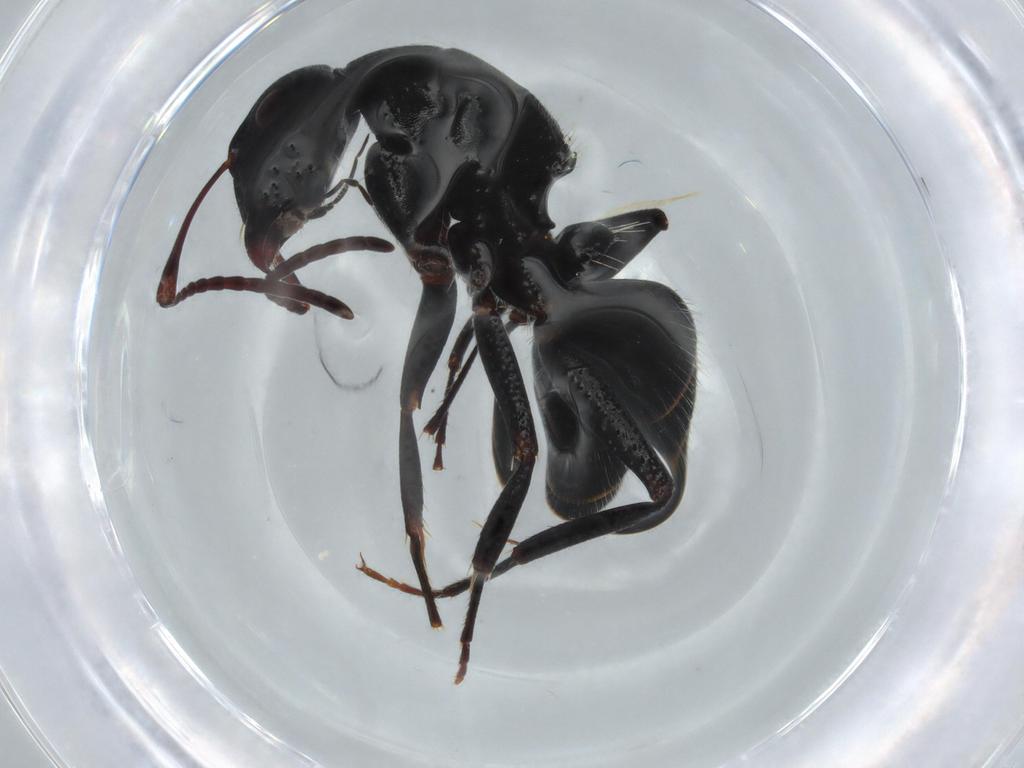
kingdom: Animalia
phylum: Arthropoda
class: Insecta
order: Hymenoptera
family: Formicidae
